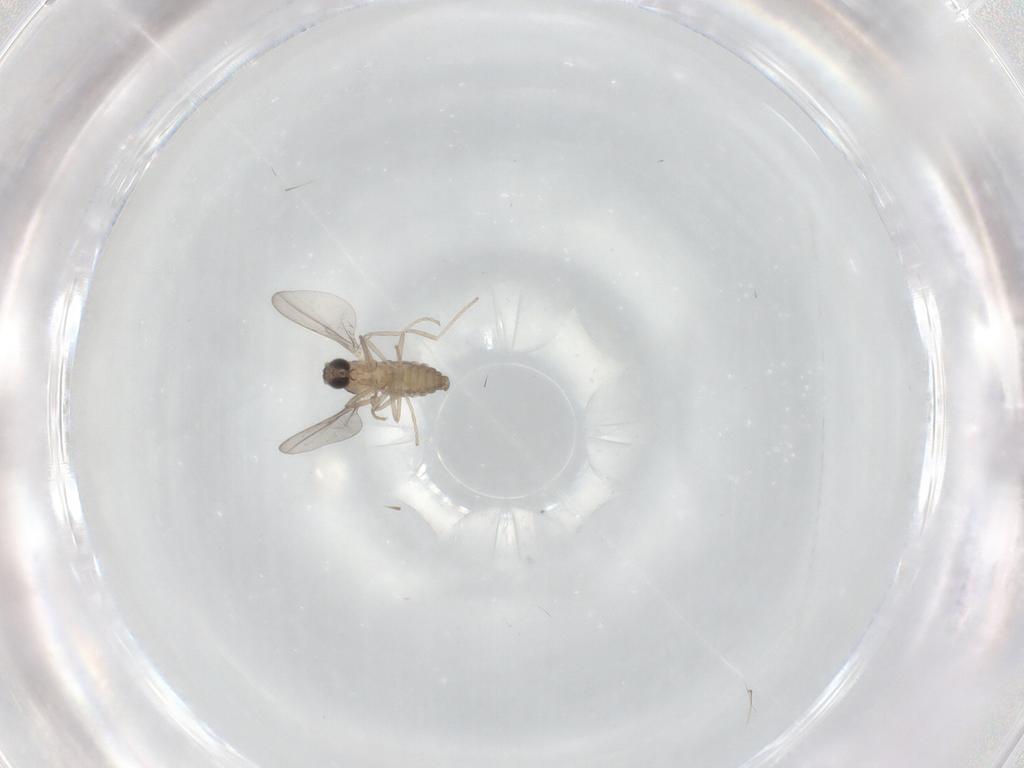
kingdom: Animalia
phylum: Arthropoda
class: Insecta
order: Diptera
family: Cecidomyiidae
